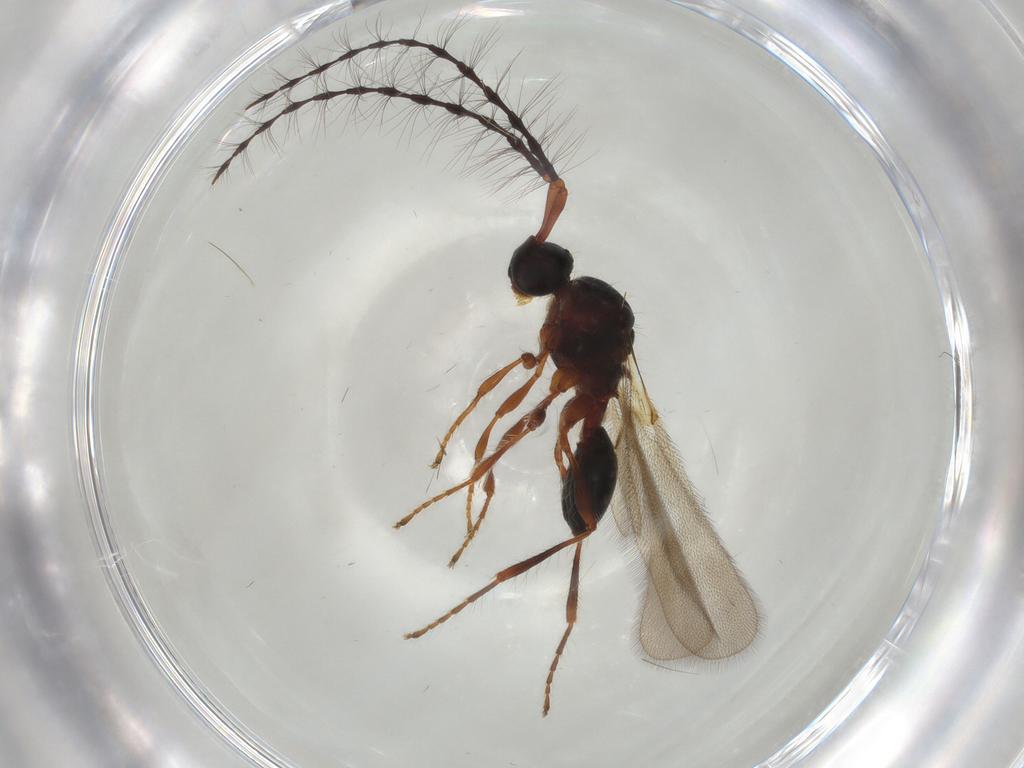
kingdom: Animalia
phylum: Arthropoda
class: Insecta
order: Hymenoptera
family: Diapriidae
